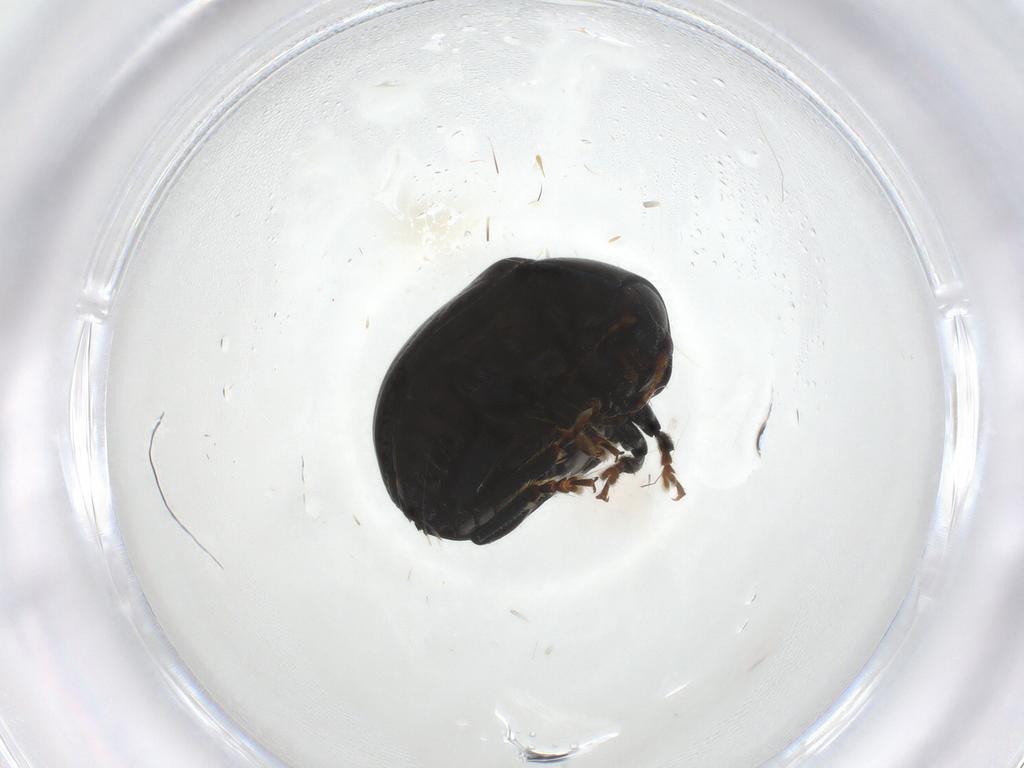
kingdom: Animalia
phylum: Arthropoda
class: Insecta
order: Coleoptera
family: Chrysomelidae
